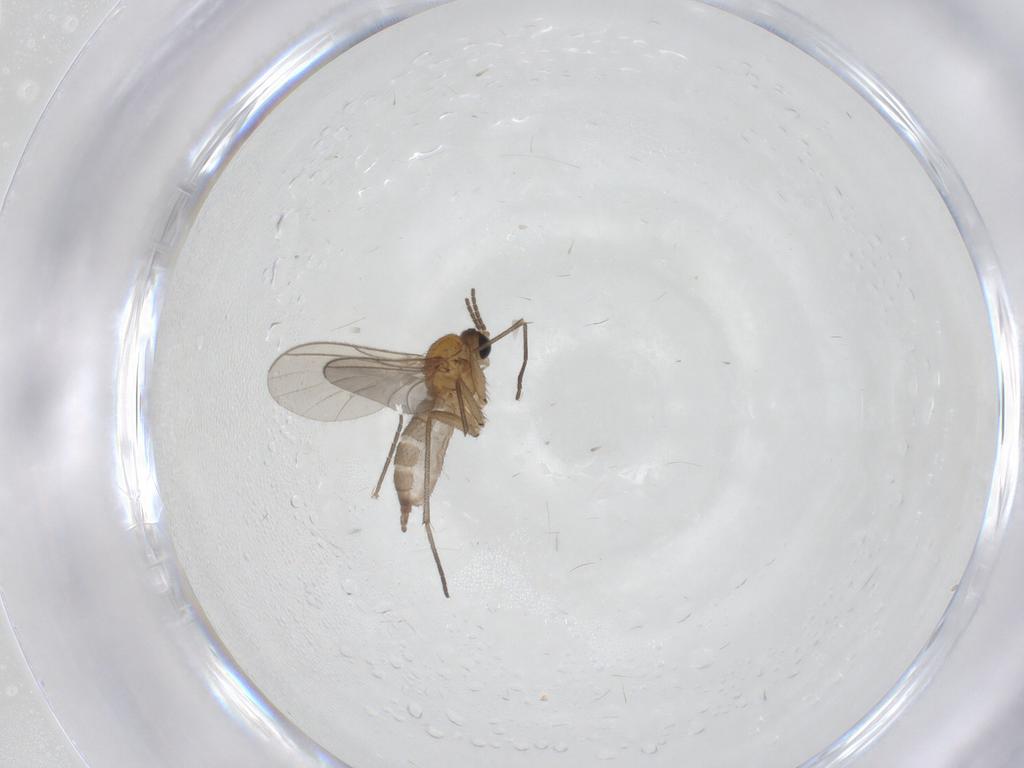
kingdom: Animalia
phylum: Arthropoda
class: Insecta
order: Diptera
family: Sciaridae
